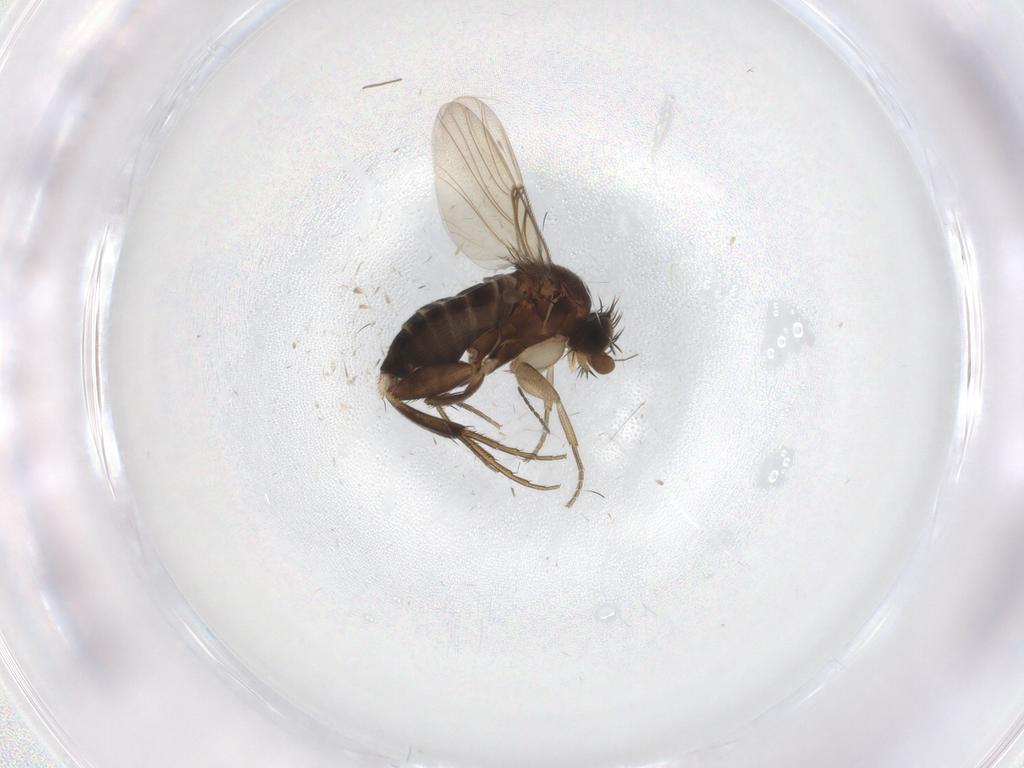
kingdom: Animalia
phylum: Arthropoda
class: Insecta
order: Diptera
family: Phoridae
